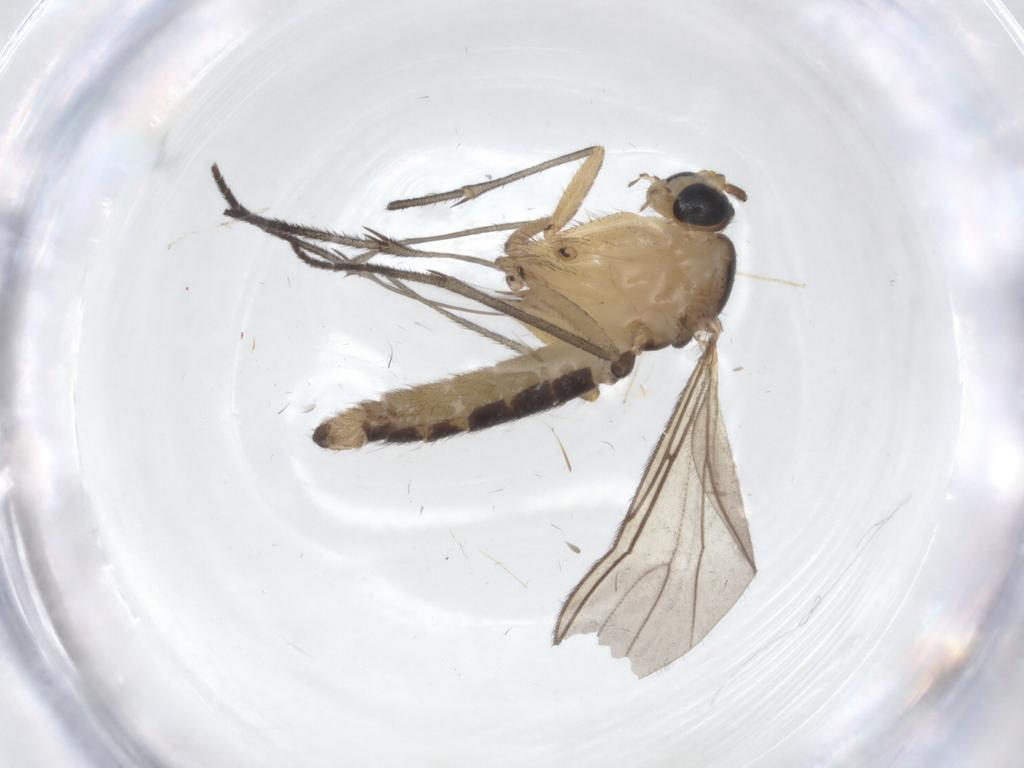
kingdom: Animalia
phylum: Arthropoda
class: Insecta
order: Diptera
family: Sciaridae
